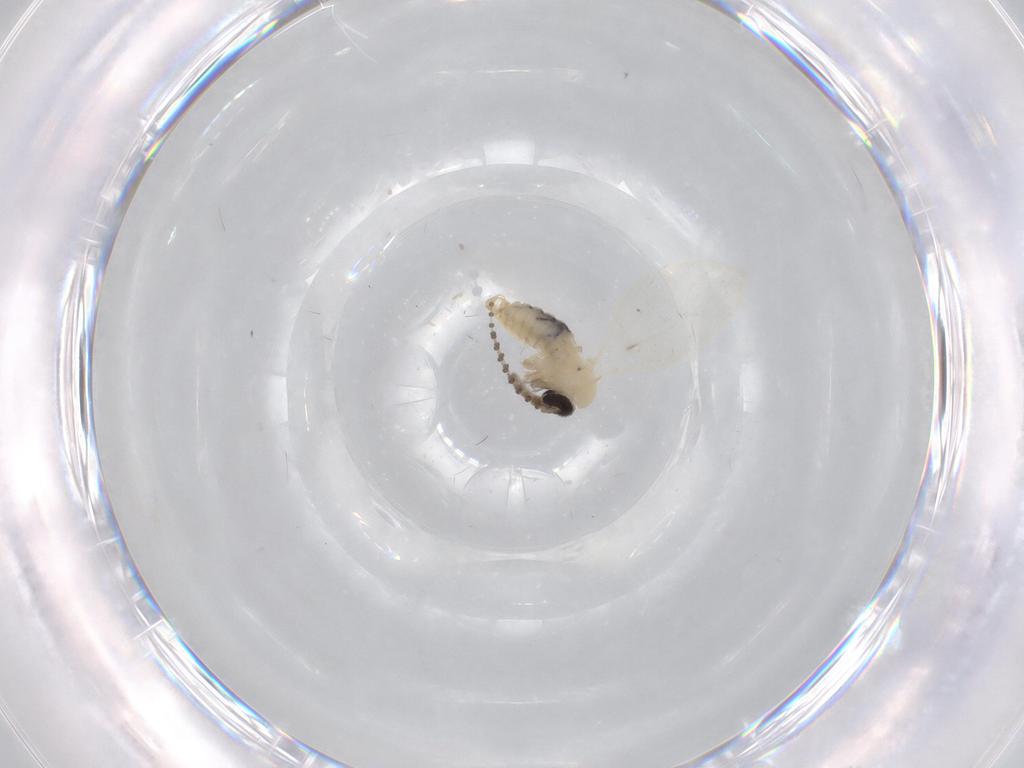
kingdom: Animalia
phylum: Arthropoda
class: Insecta
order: Diptera
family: Psychodidae
